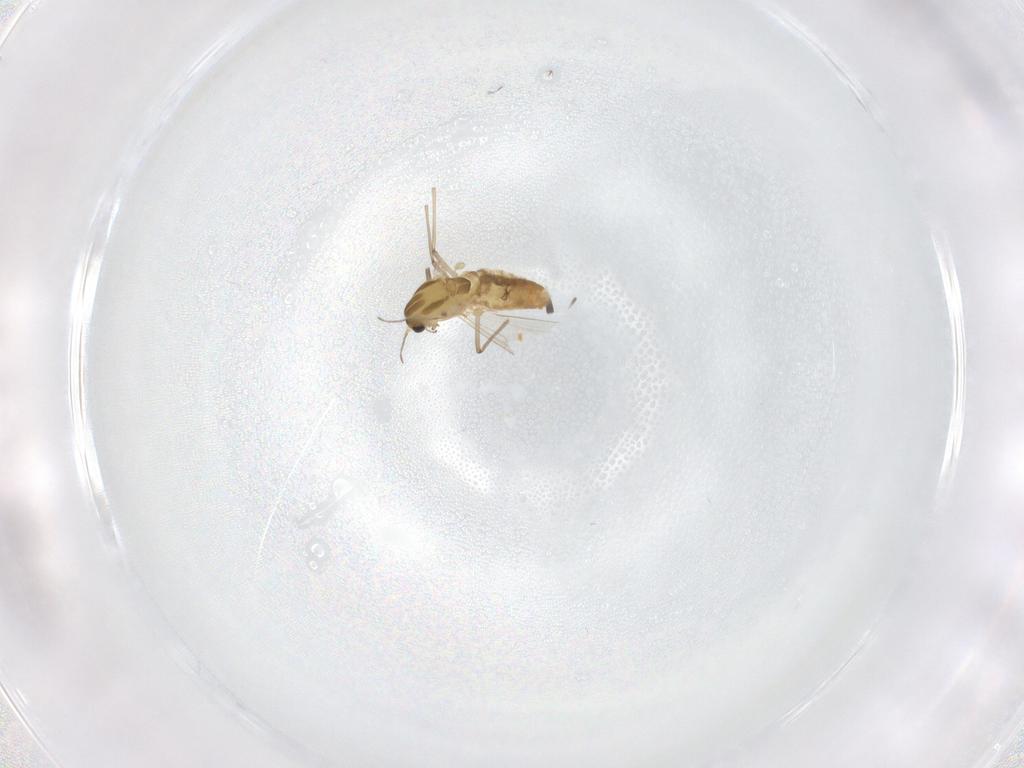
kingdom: Animalia
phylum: Arthropoda
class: Insecta
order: Diptera
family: Chironomidae
